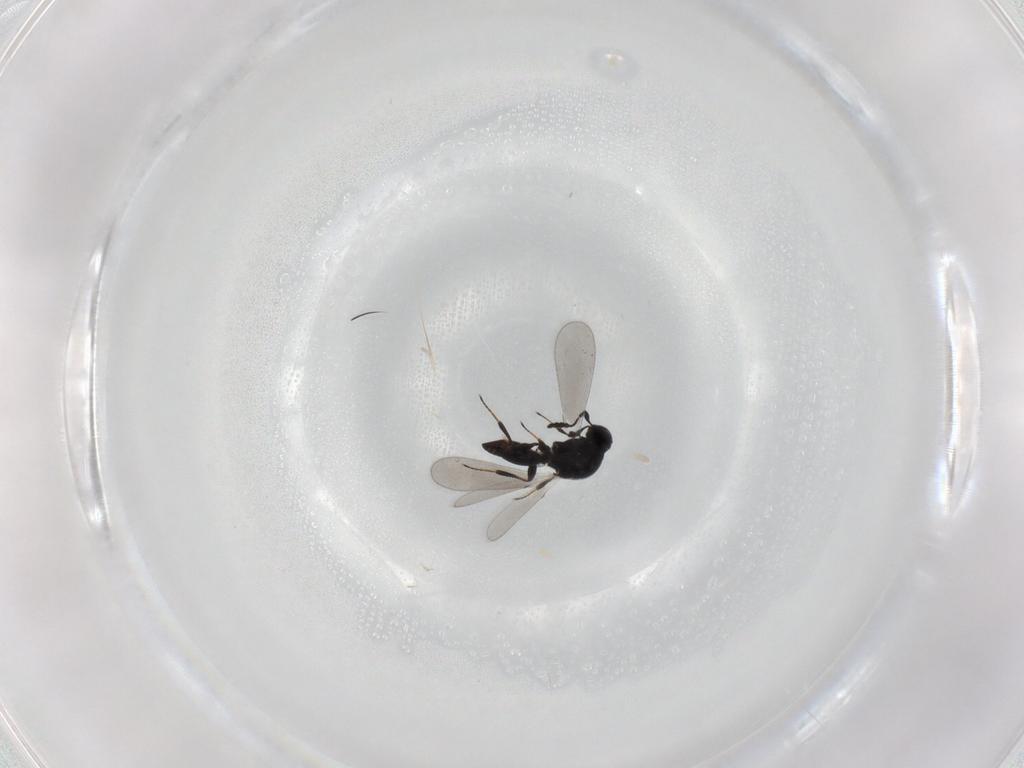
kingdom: Animalia
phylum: Arthropoda
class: Insecta
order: Hymenoptera
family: Platygastridae
